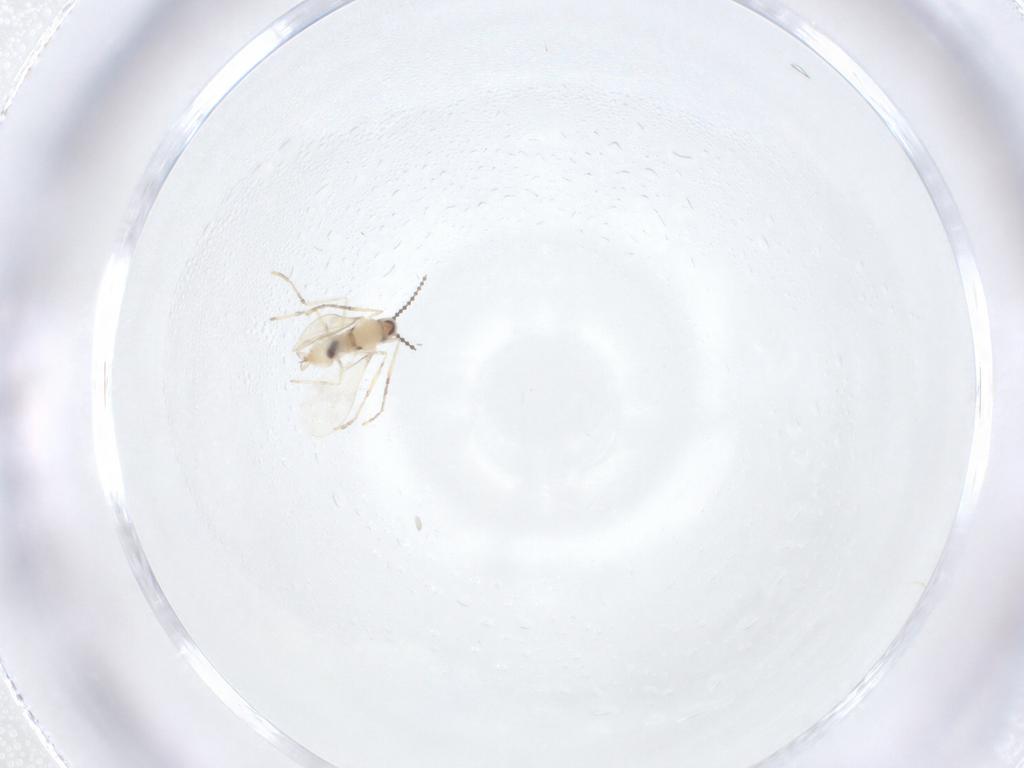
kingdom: Animalia
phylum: Arthropoda
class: Insecta
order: Diptera
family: Cecidomyiidae
